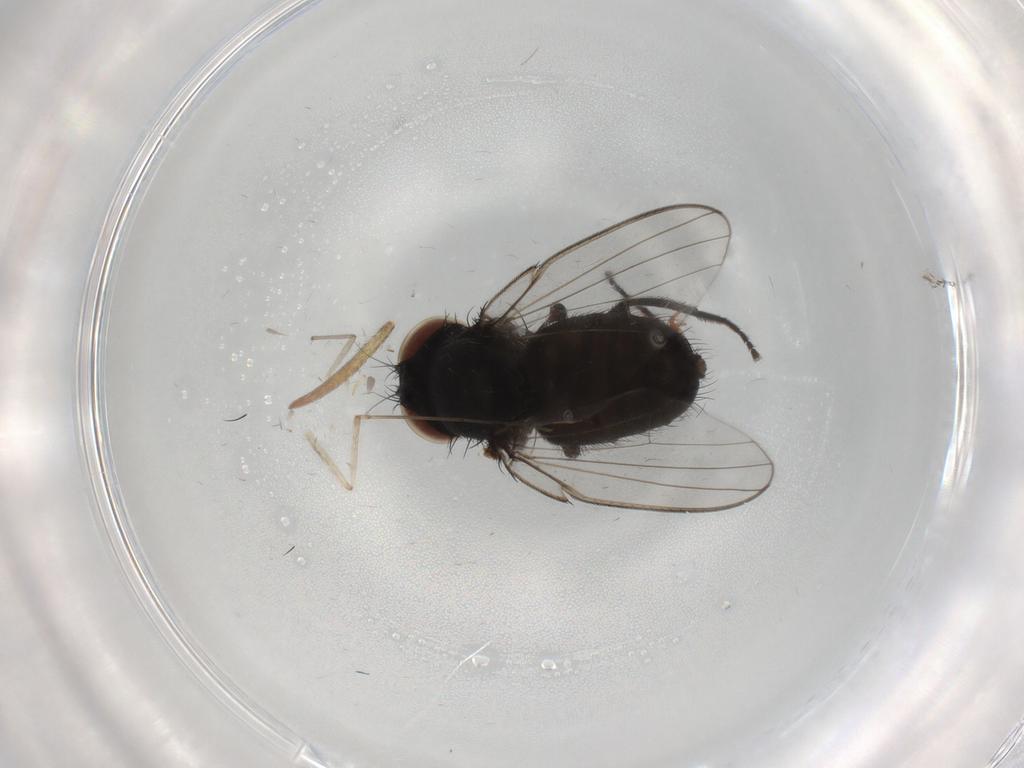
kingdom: Animalia
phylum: Arthropoda
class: Insecta
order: Diptera
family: Milichiidae
